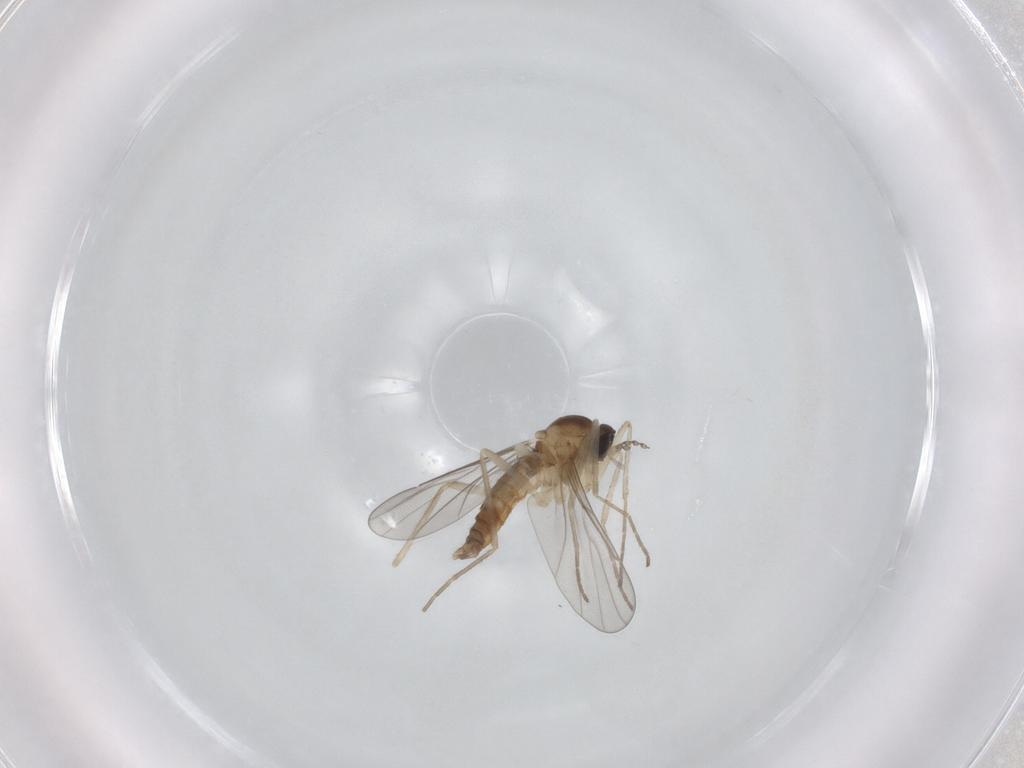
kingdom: Animalia
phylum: Arthropoda
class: Insecta
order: Diptera
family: Cecidomyiidae
